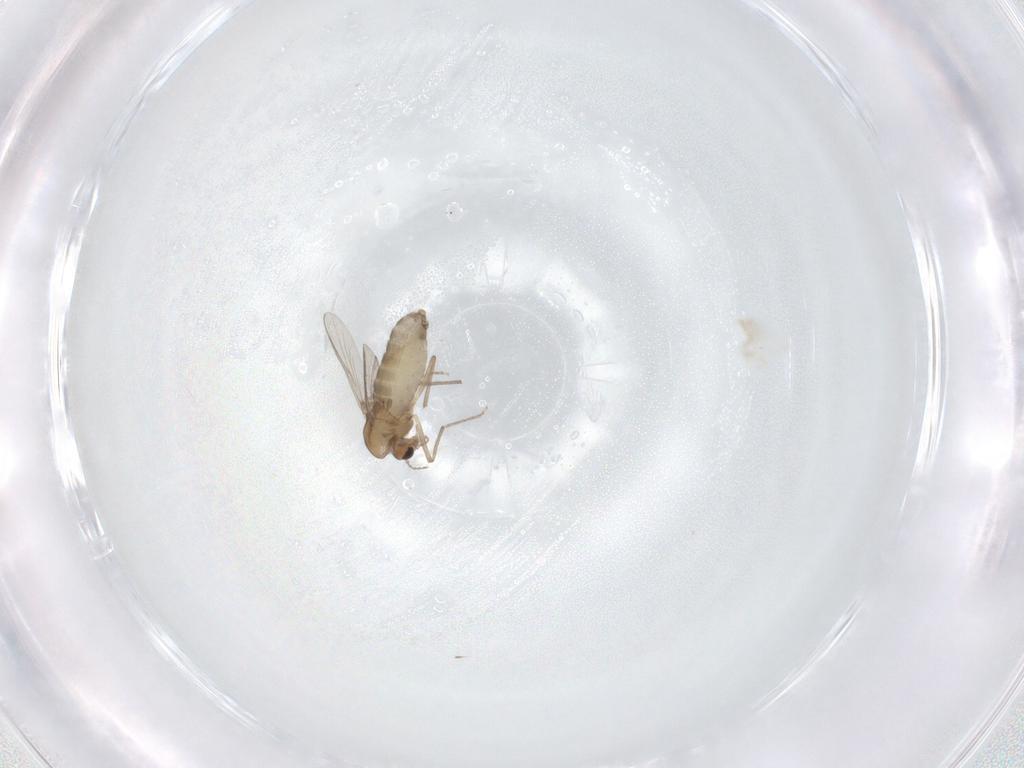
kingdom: Animalia
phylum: Arthropoda
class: Insecta
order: Diptera
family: Chironomidae
